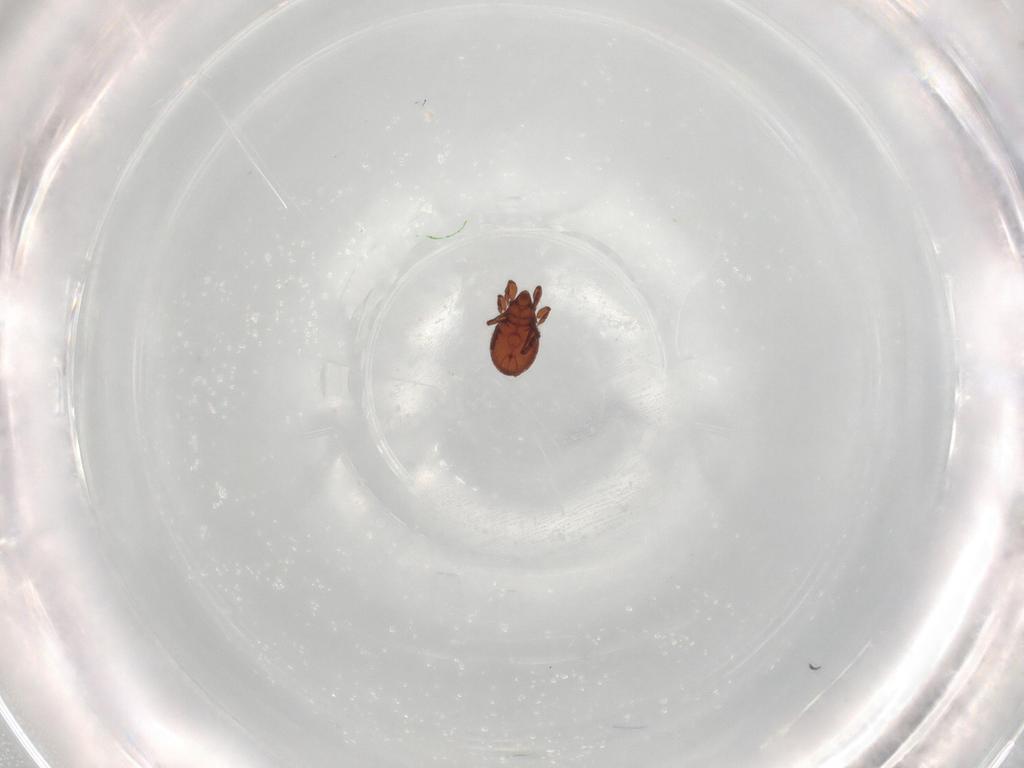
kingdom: Animalia
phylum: Arthropoda
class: Arachnida
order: Sarcoptiformes
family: Eremaeidae
